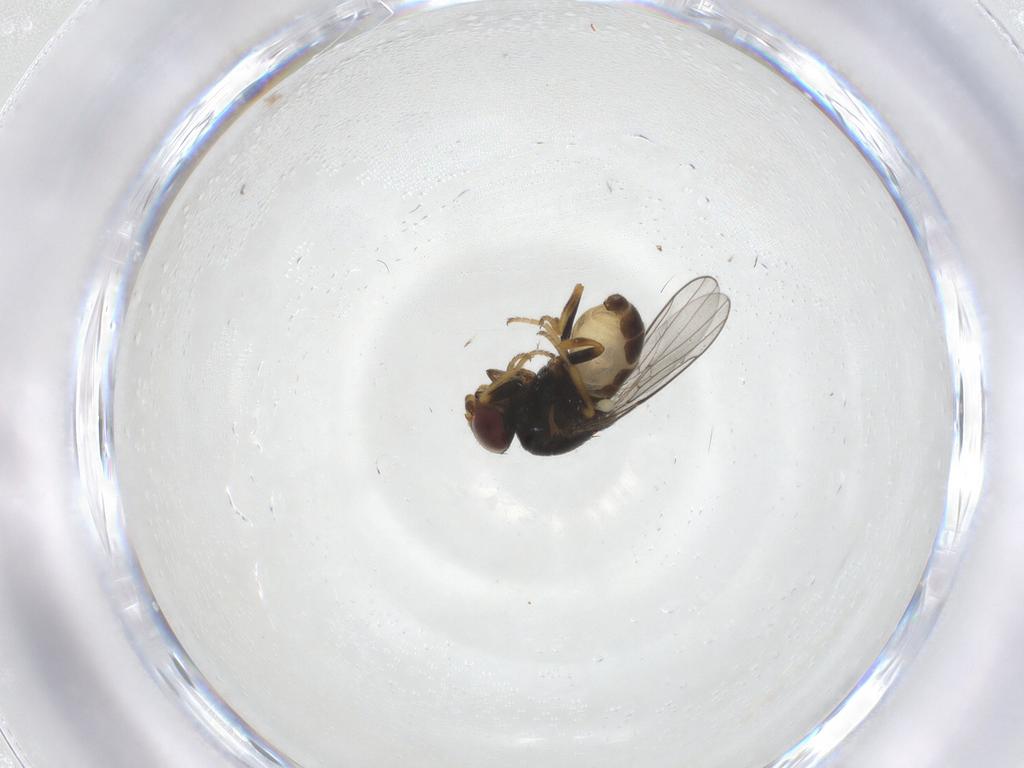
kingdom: Animalia
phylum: Arthropoda
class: Insecta
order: Diptera
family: Chloropidae
